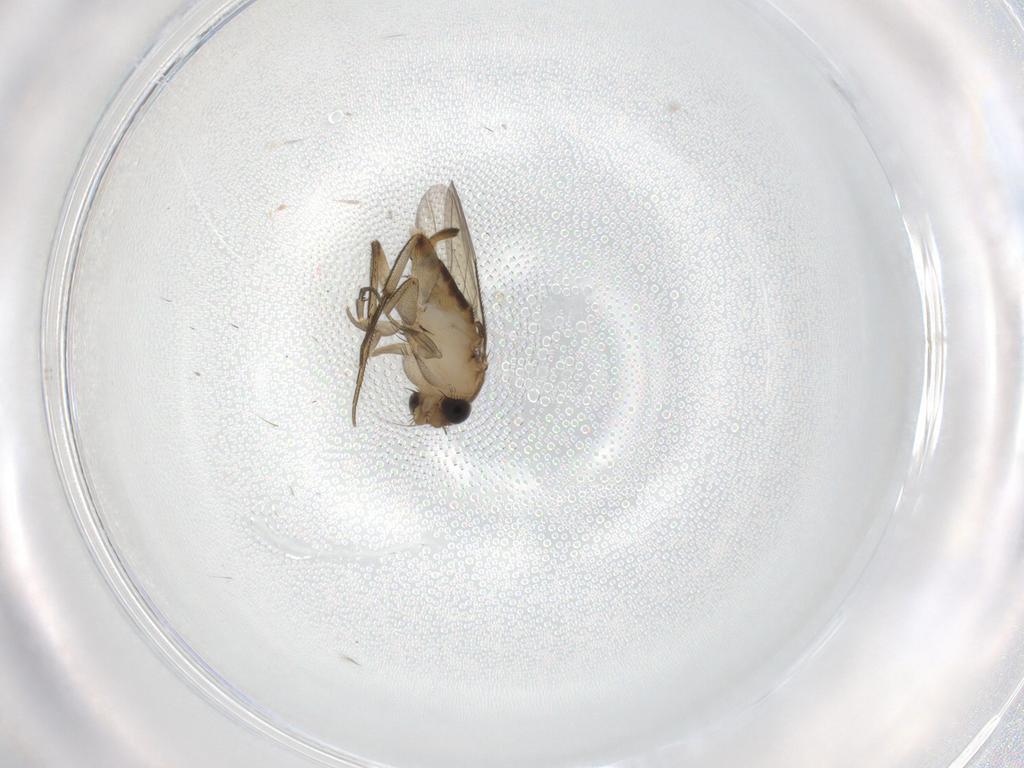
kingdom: Animalia
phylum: Arthropoda
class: Insecta
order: Diptera
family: Phoridae
